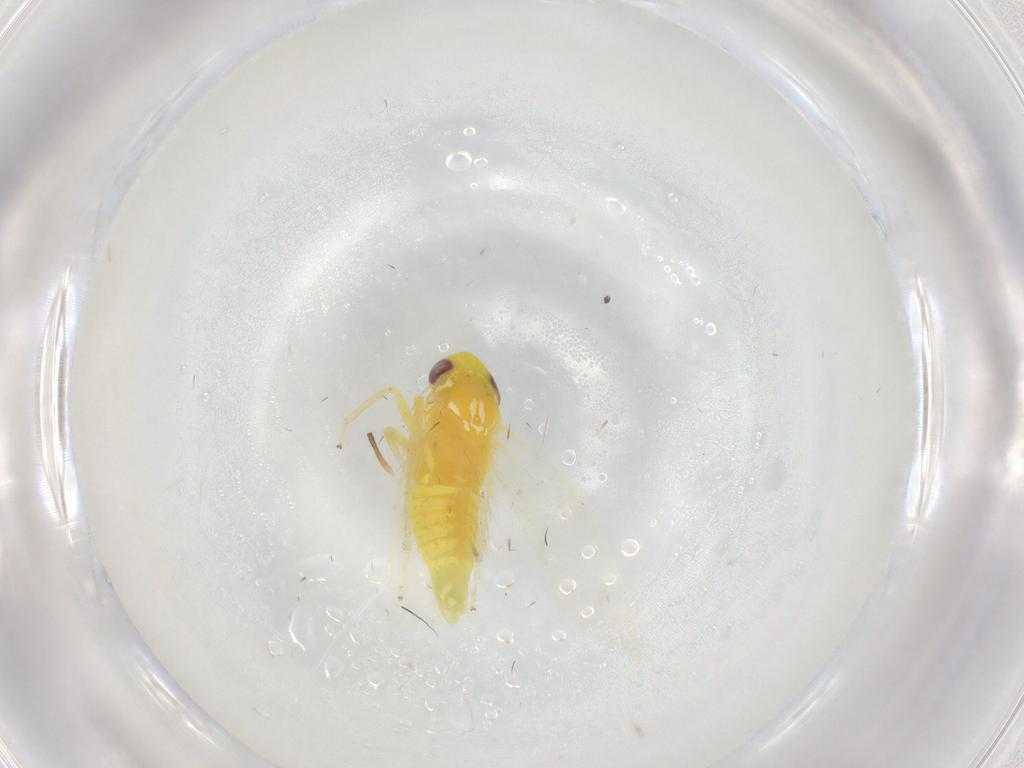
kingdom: Animalia
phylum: Arthropoda
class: Insecta
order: Hemiptera
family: Cicadellidae
